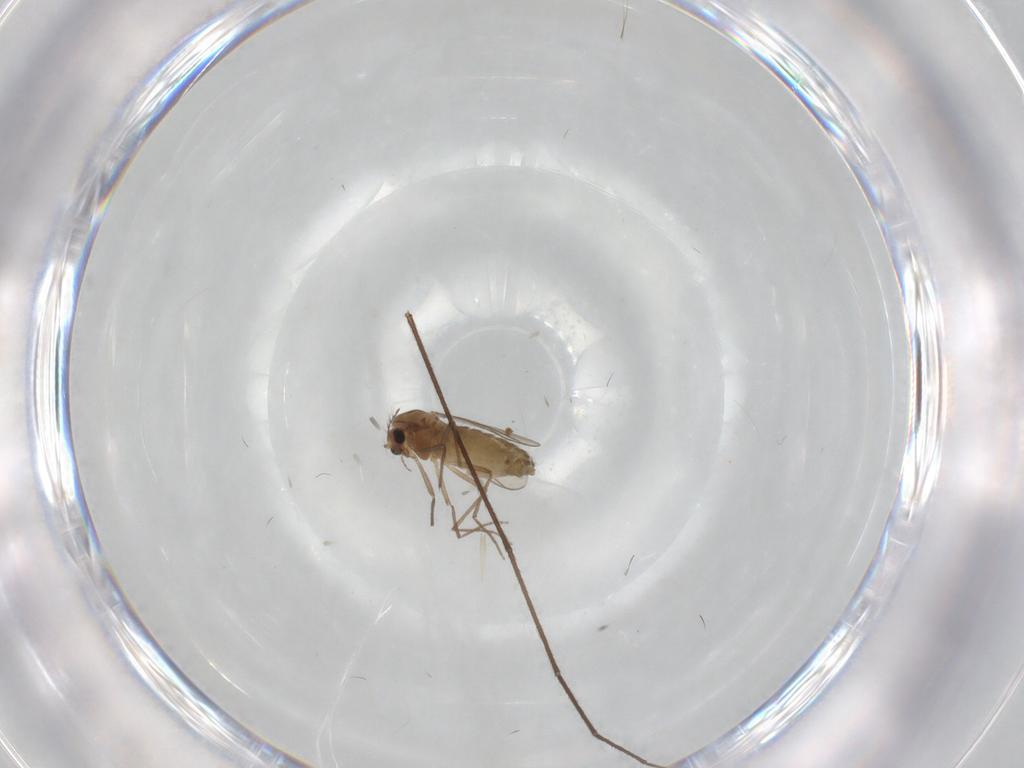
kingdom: Animalia
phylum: Arthropoda
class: Insecta
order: Diptera
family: Chironomidae
